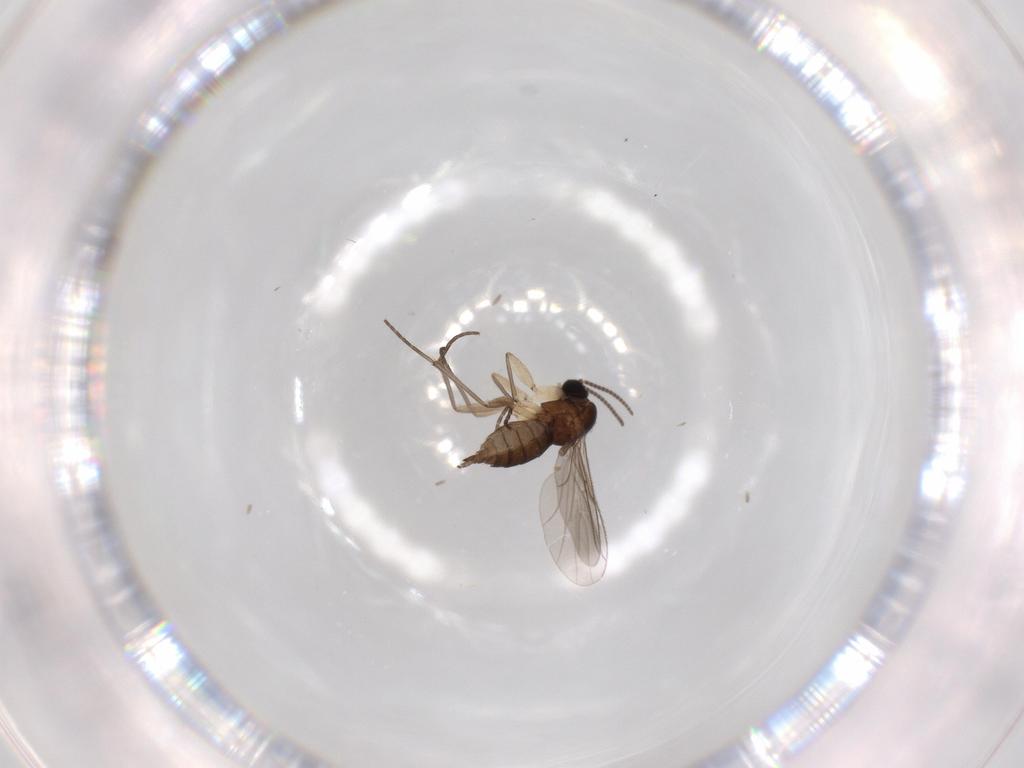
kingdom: Animalia
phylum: Arthropoda
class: Insecta
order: Diptera
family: Sciaridae
